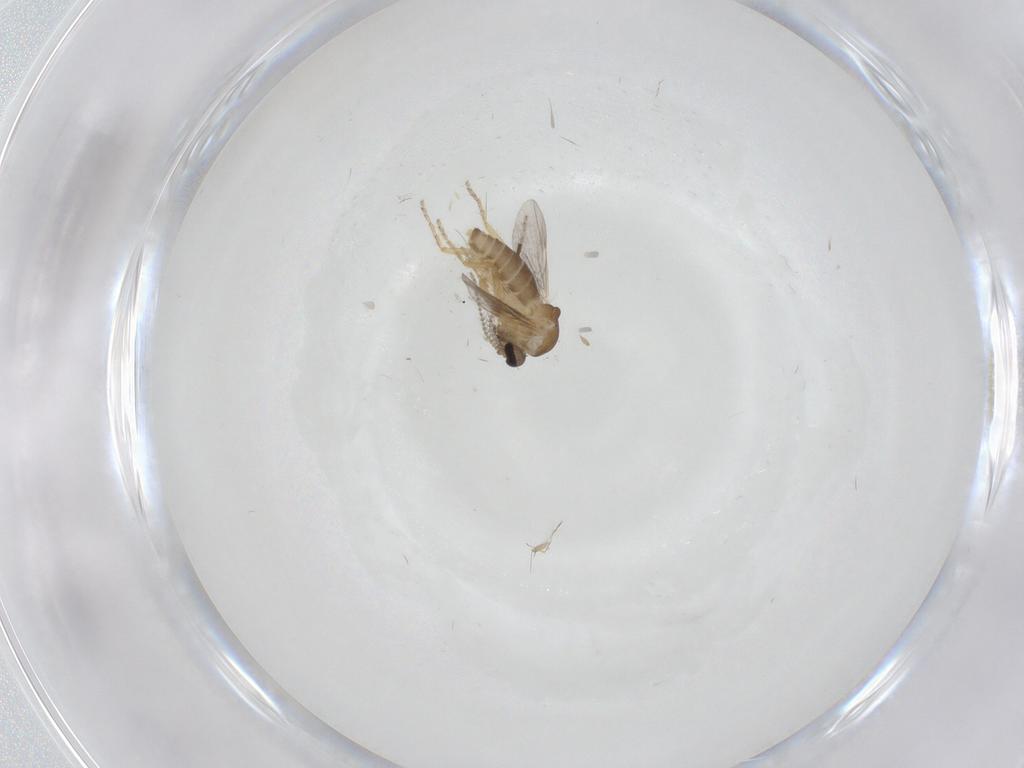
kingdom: Animalia
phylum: Arthropoda
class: Insecta
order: Diptera
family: Ceratopogonidae
